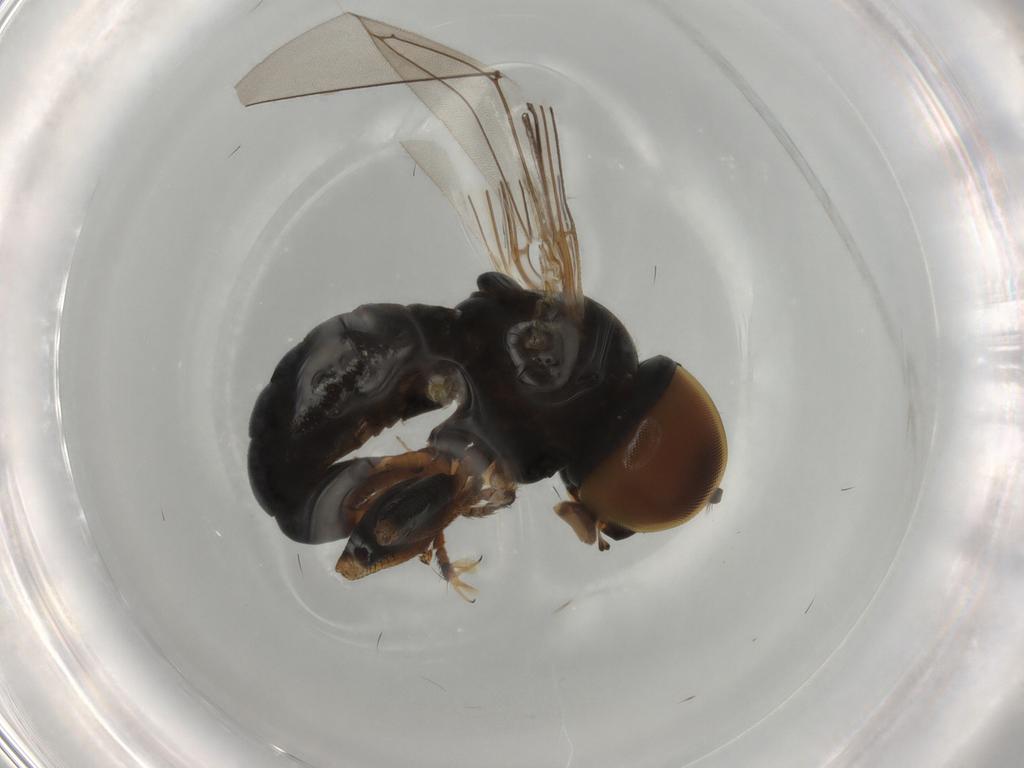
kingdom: Animalia
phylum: Arthropoda
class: Insecta
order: Diptera
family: Pipunculidae
